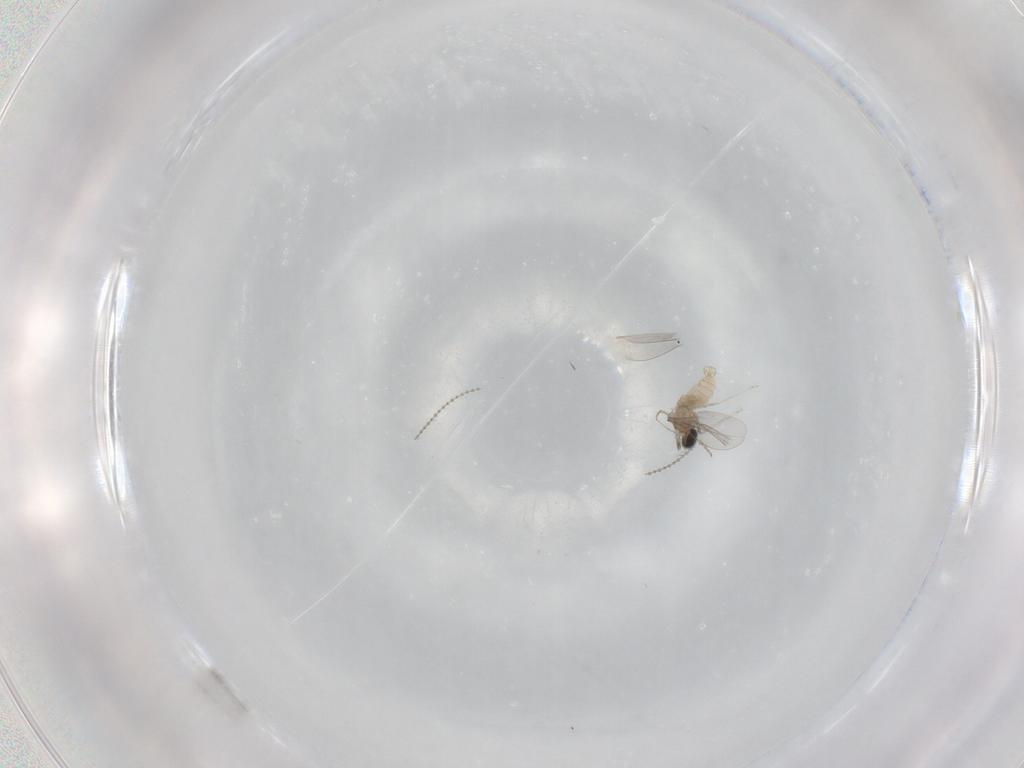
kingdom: Animalia
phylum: Arthropoda
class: Insecta
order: Diptera
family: Cecidomyiidae
